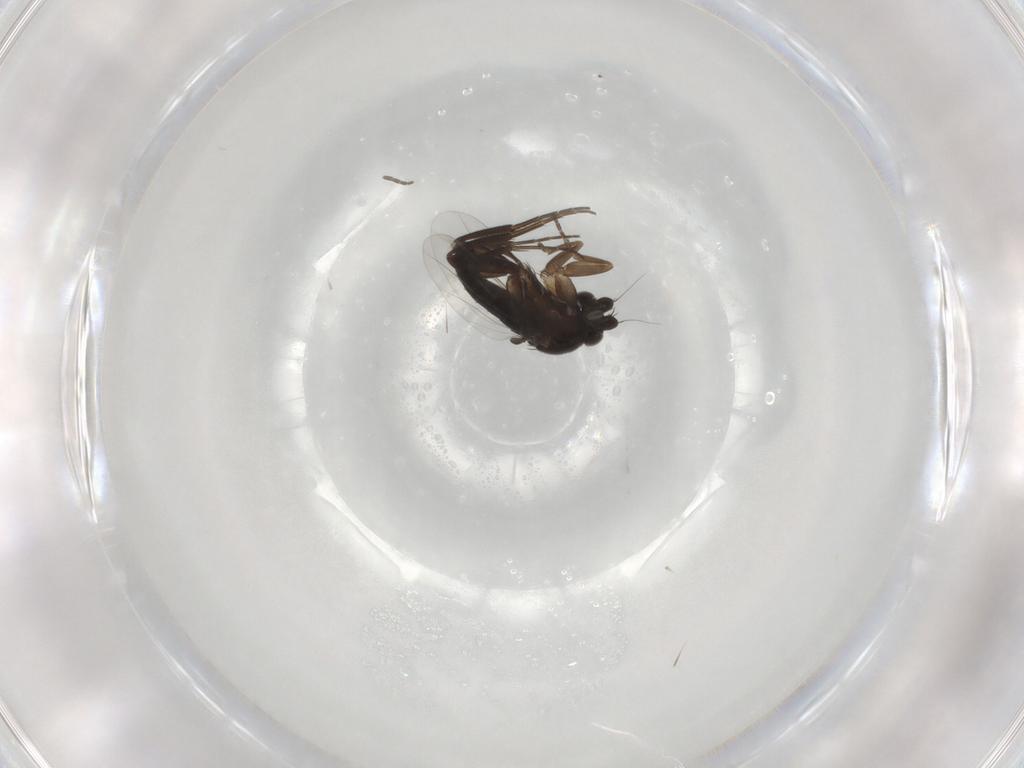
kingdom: Animalia
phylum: Arthropoda
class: Insecta
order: Diptera
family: Phoridae
